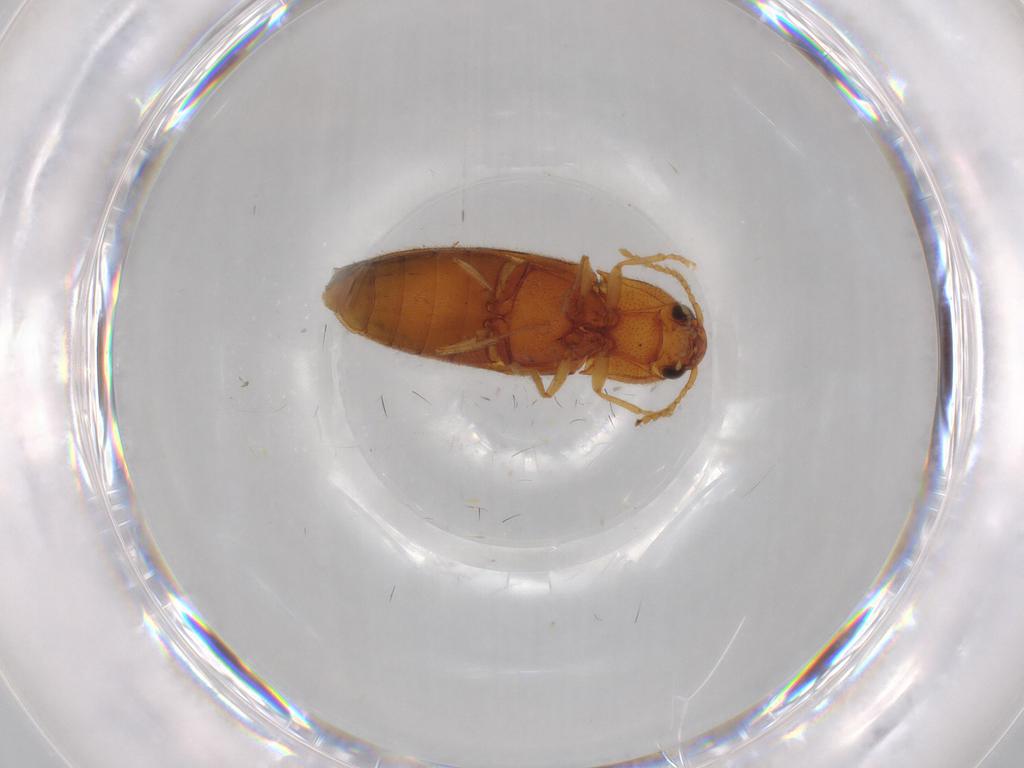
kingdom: Animalia
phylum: Arthropoda
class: Insecta
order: Coleoptera
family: Elateridae
